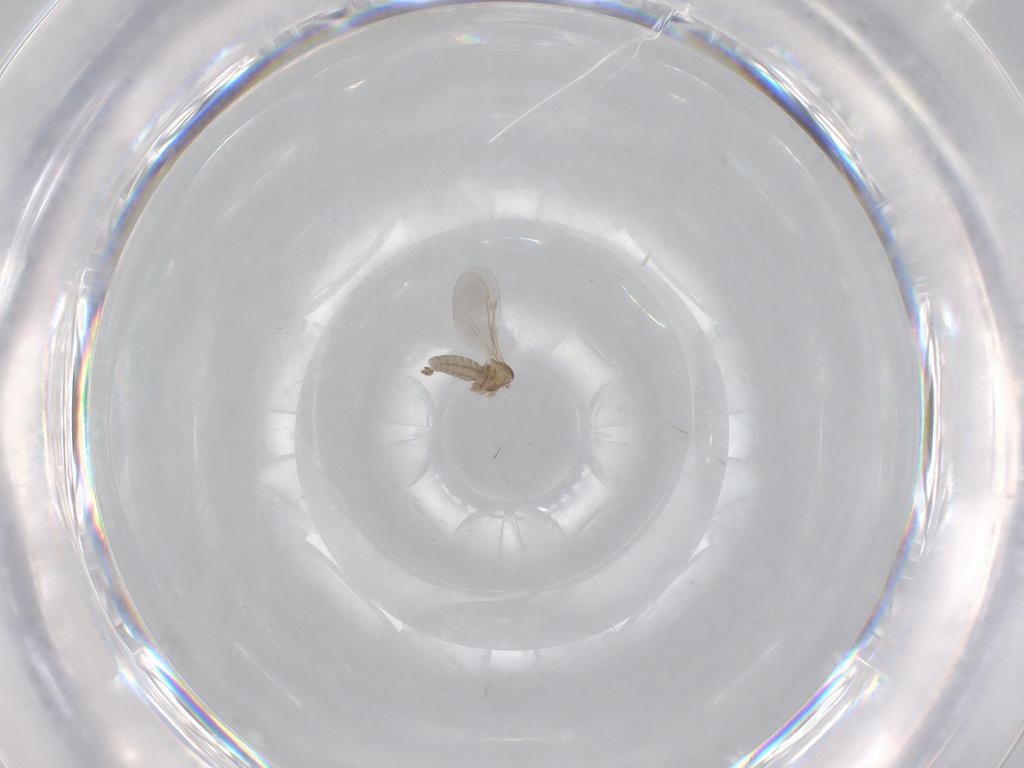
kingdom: Animalia
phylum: Arthropoda
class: Insecta
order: Diptera
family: Cecidomyiidae
